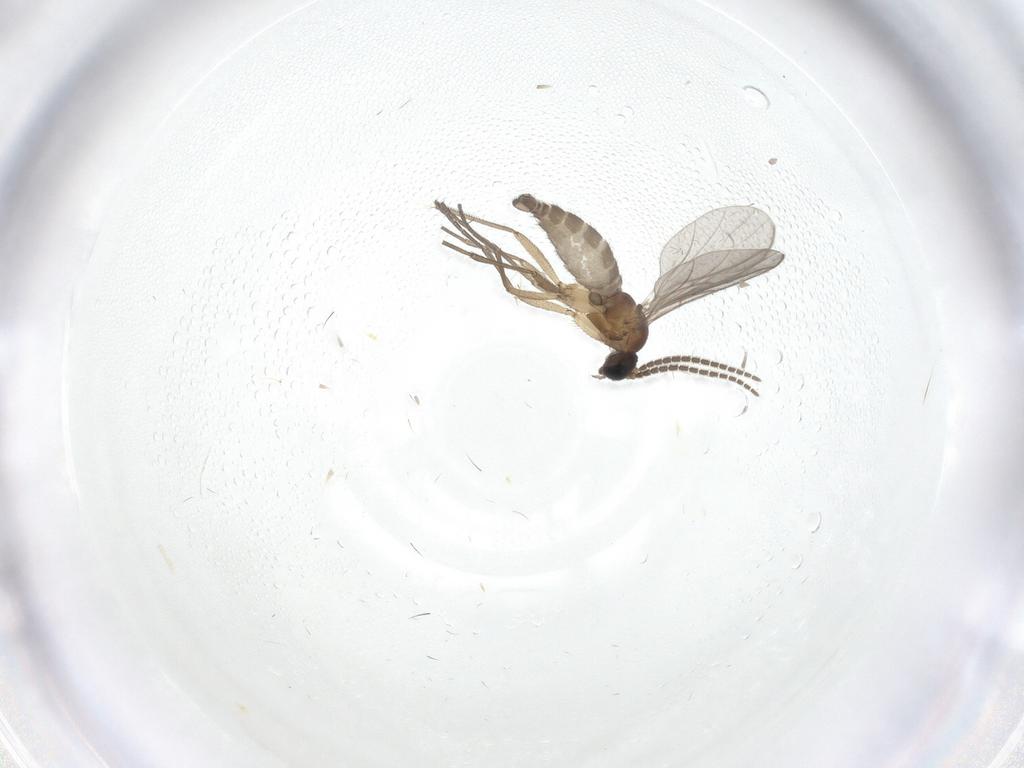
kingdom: Animalia
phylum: Arthropoda
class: Insecta
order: Diptera
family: Sciaridae
